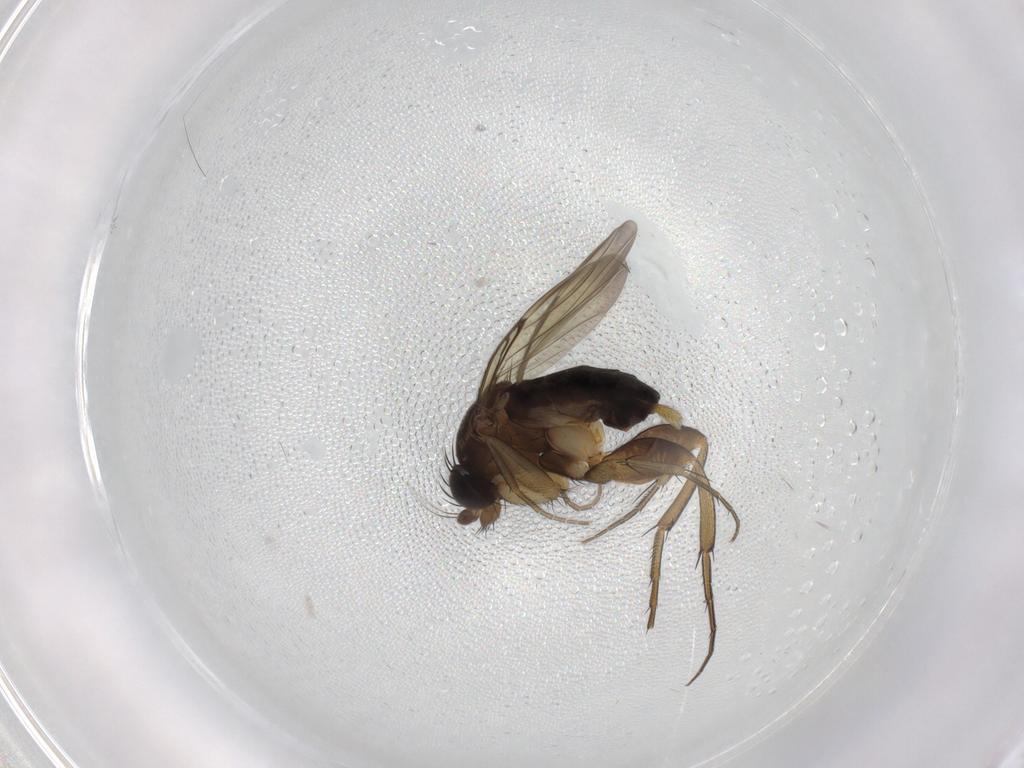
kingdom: Animalia
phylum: Arthropoda
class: Insecta
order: Diptera
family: Phoridae
